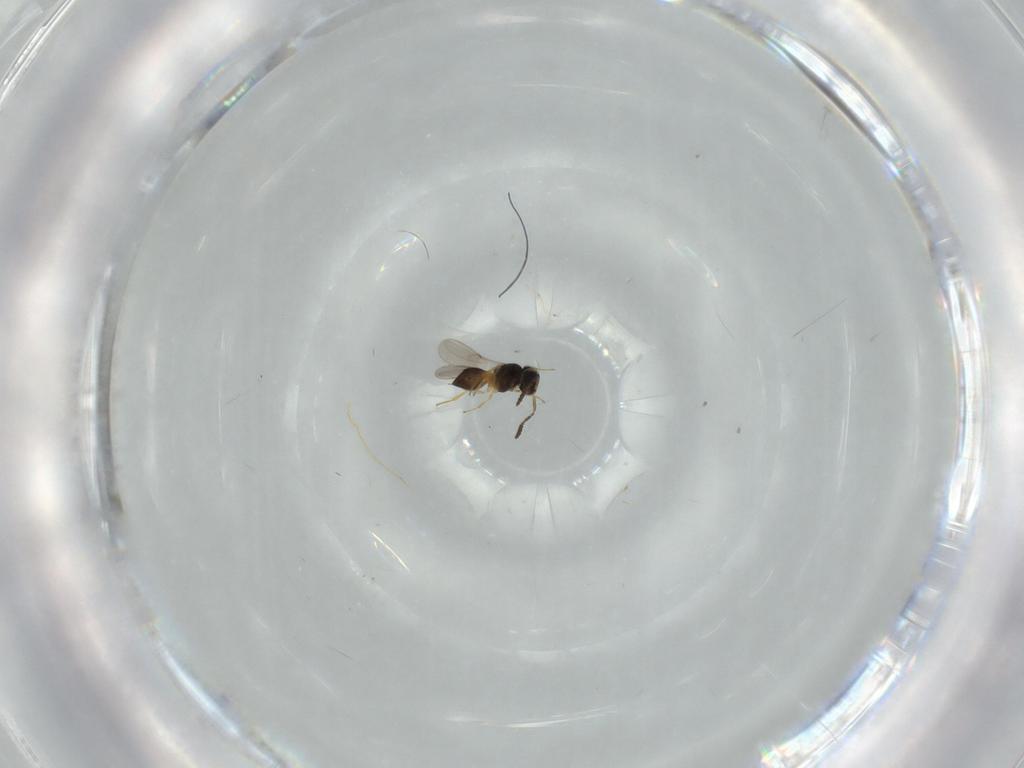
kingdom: Animalia
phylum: Arthropoda
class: Insecta
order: Hymenoptera
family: Scelionidae
